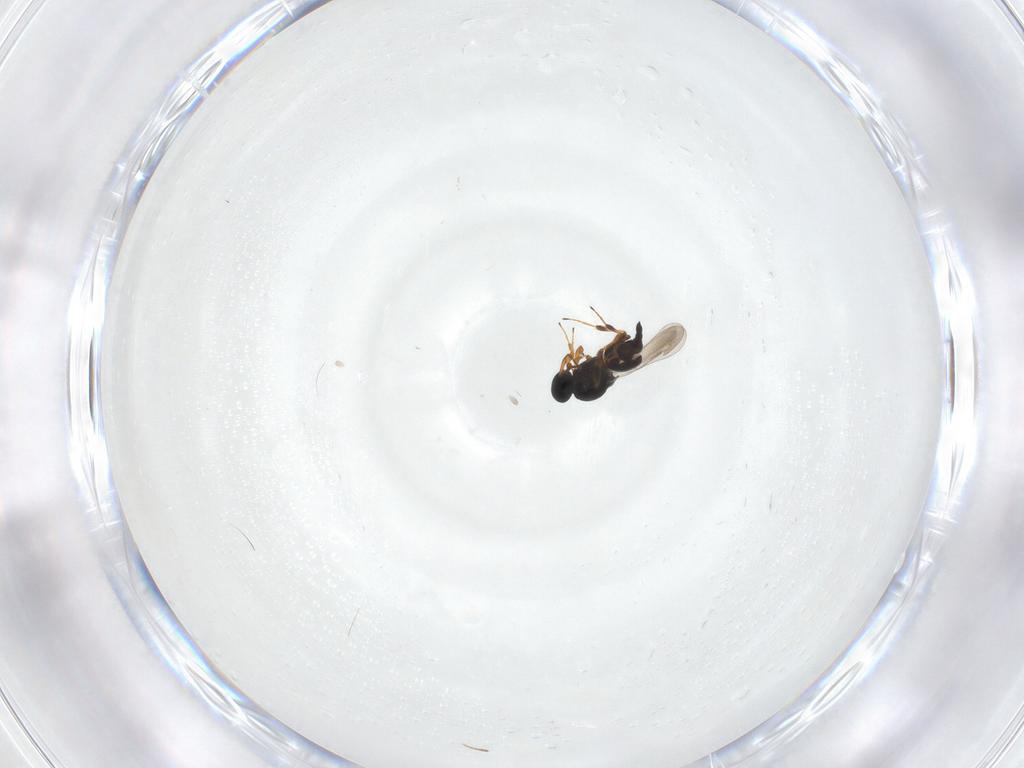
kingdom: Animalia
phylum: Arthropoda
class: Insecta
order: Hymenoptera
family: Platygastridae
